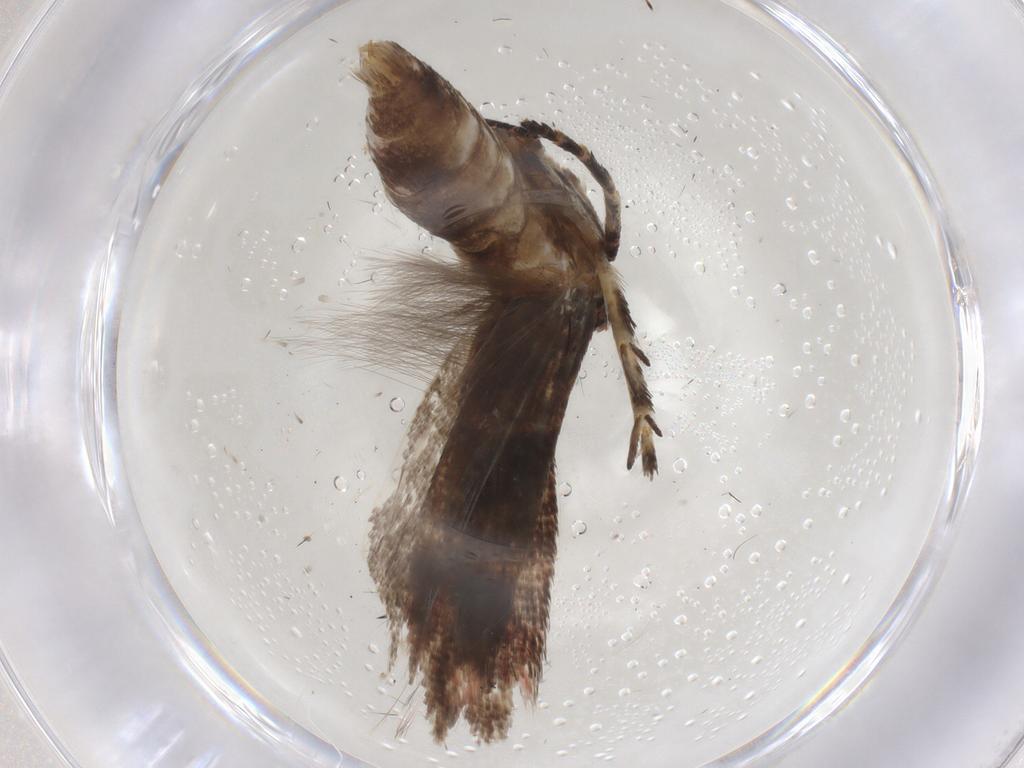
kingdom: Animalia
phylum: Arthropoda
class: Insecta
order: Lepidoptera
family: Gelechiidae
